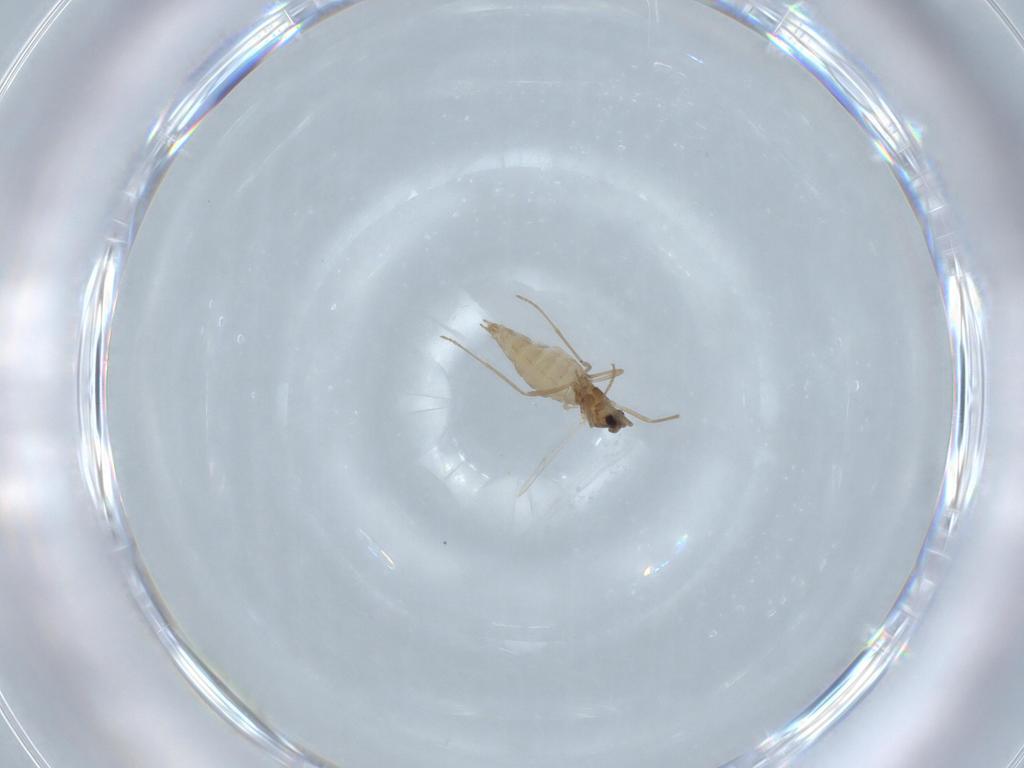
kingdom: Animalia
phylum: Arthropoda
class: Insecta
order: Diptera
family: Cecidomyiidae
